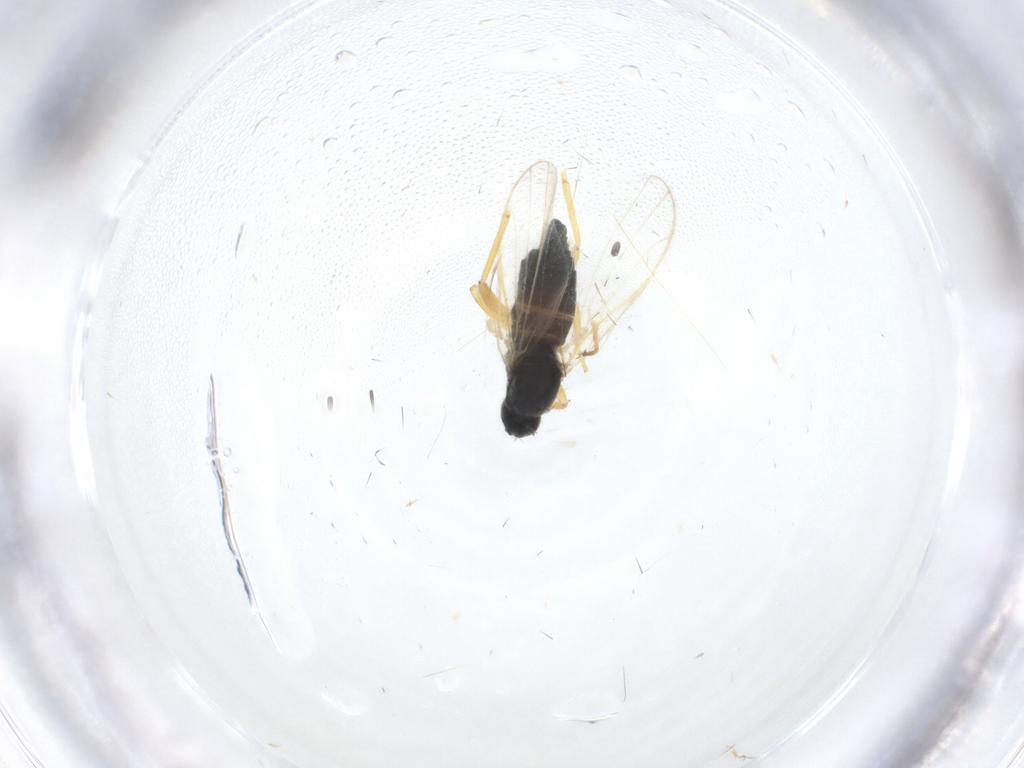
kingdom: Animalia
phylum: Arthropoda
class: Insecta
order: Diptera
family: Hybotidae
